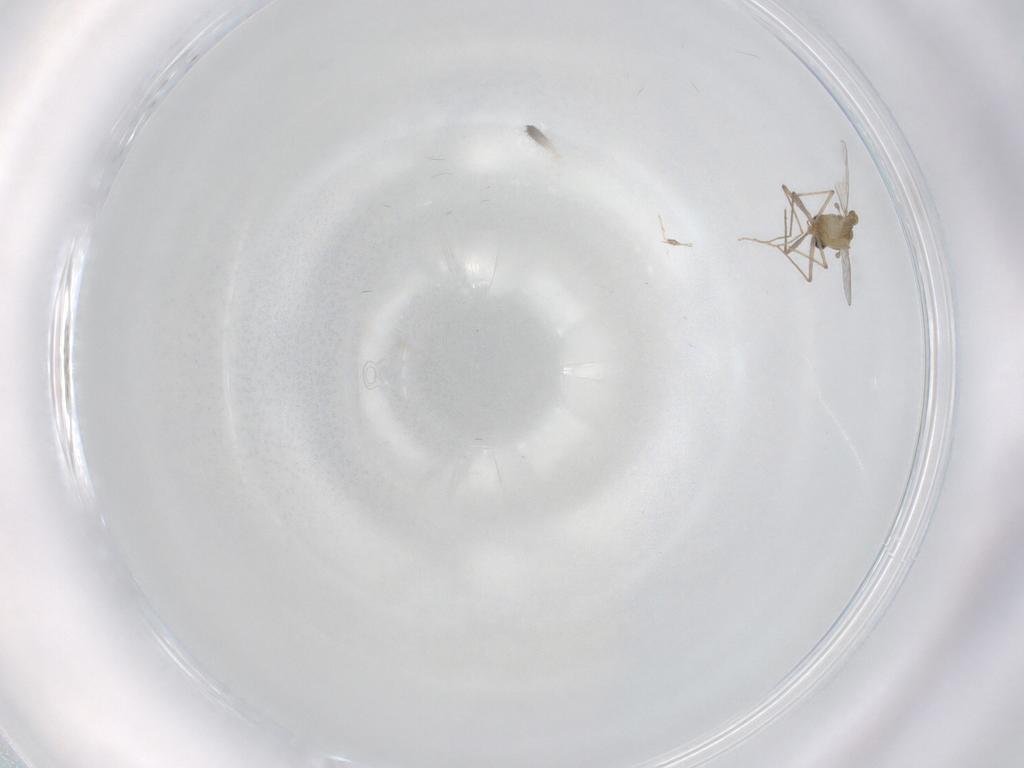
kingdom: Animalia
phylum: Arthropoda
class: Insecta
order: Diptera
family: Chironomidae
